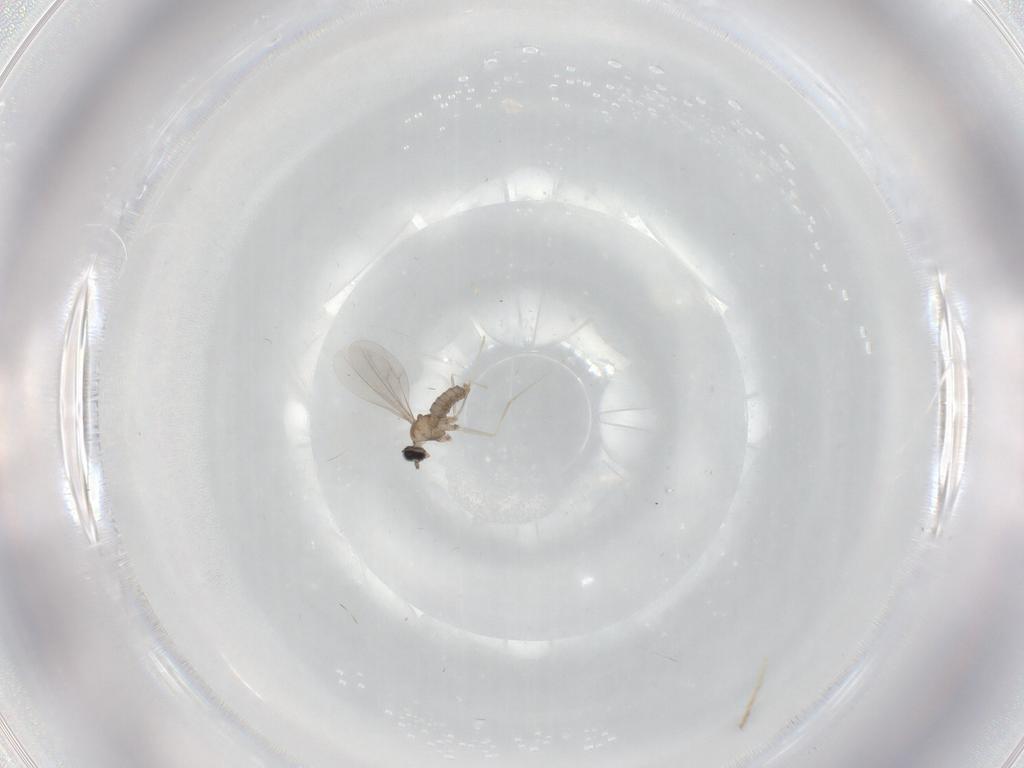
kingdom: Animalia
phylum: Arthropoda
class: Insecta
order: Diptera
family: Cecidomyiidae
